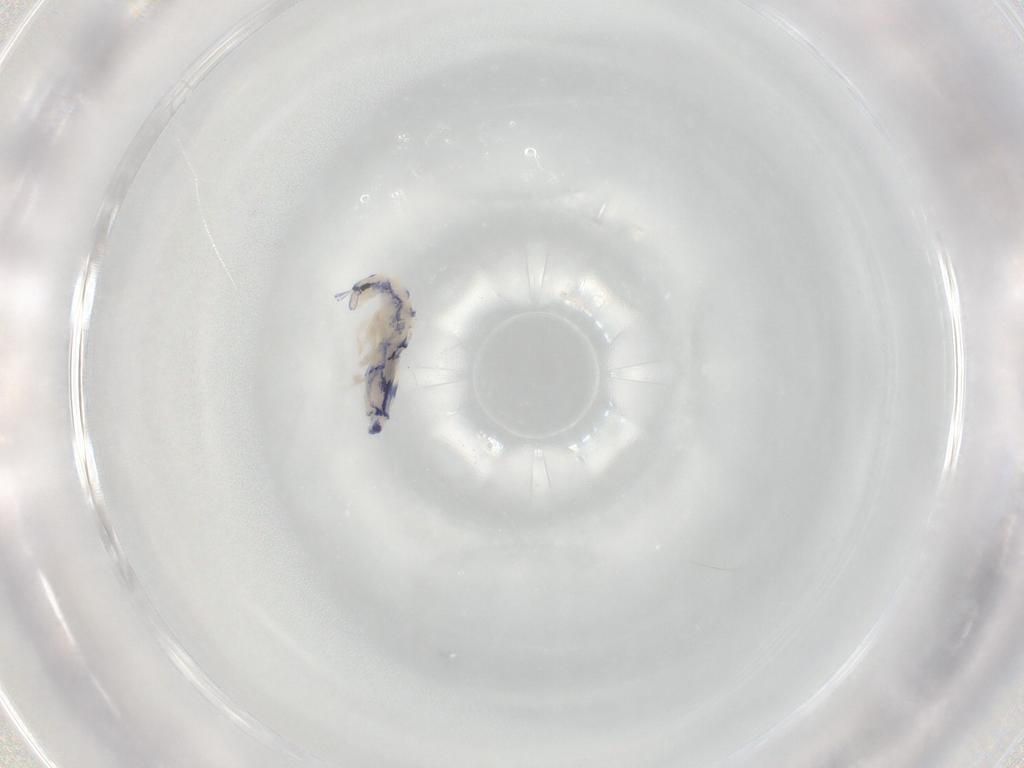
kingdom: Animalia
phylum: Arthropoda
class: Collembola
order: Entomobryomorpha
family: Entomobryidae
